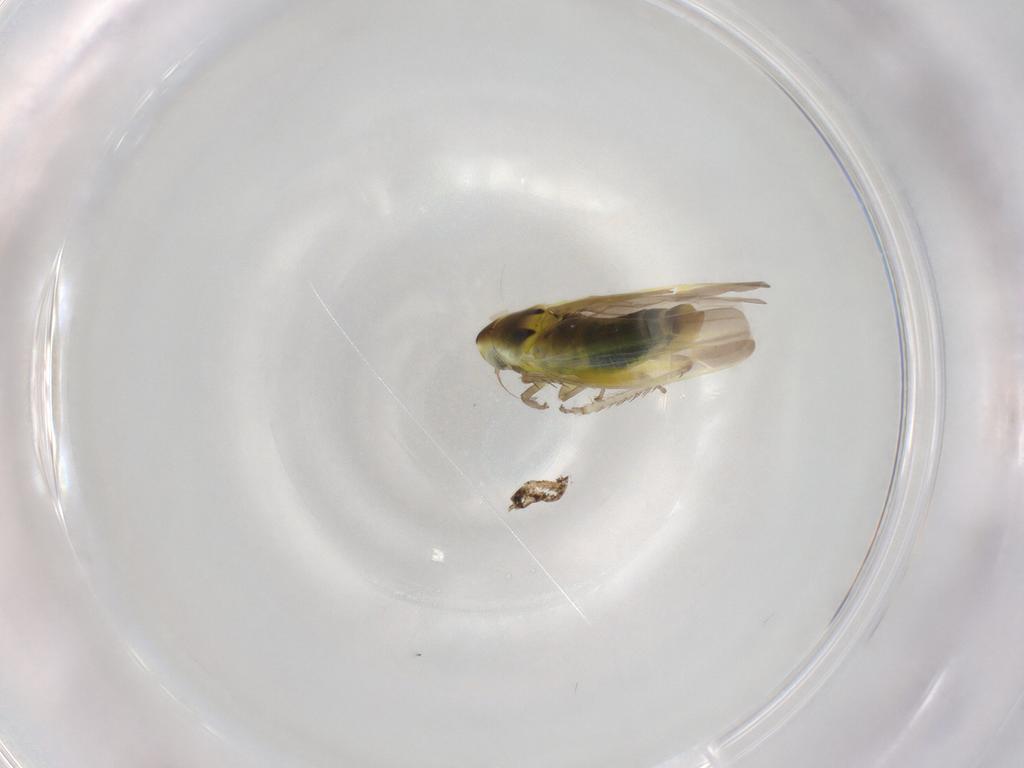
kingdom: Animalia
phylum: Arthropoda
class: Insecta
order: Hemiptera
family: Cicadellidae
